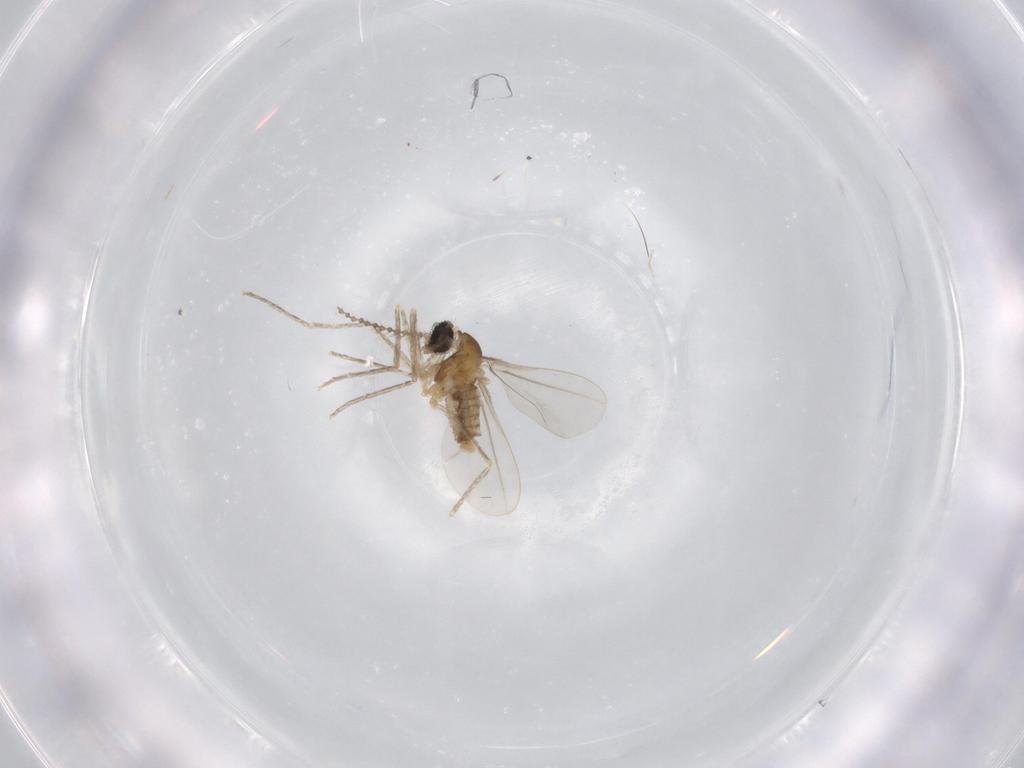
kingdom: Animalia
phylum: Arthropoda
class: Insecta
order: Diptera
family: Cecidomyiidae
